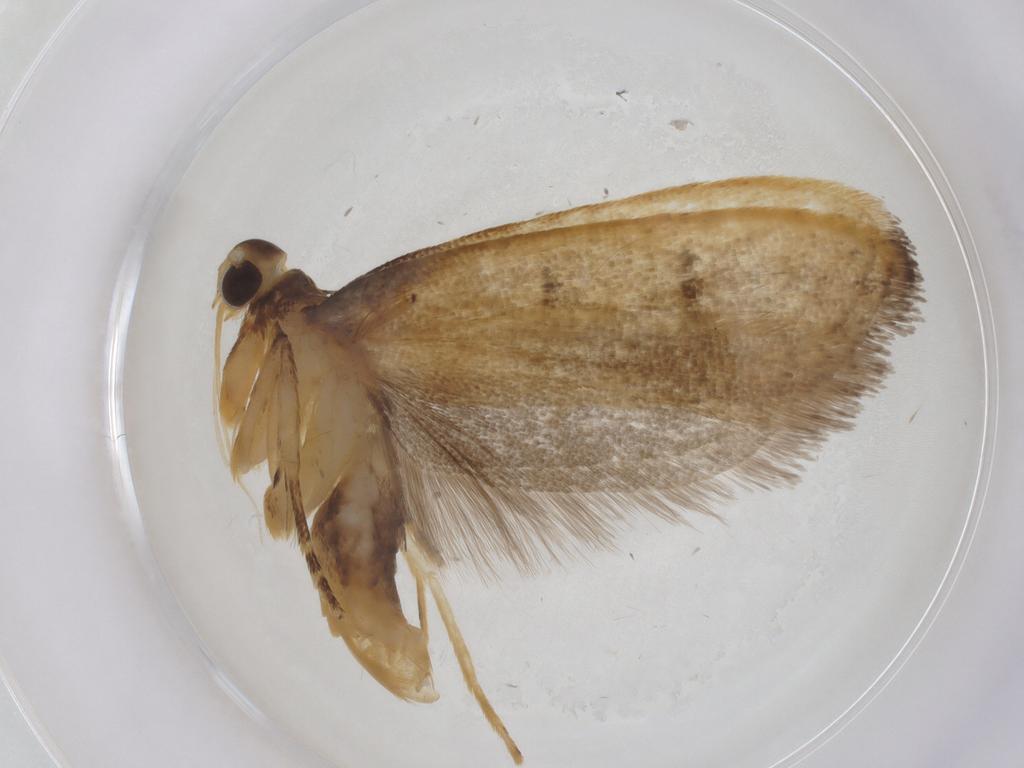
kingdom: Animalia
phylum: Arthropoda
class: Insecta
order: Lepidoptera
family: Lecithoceridae
